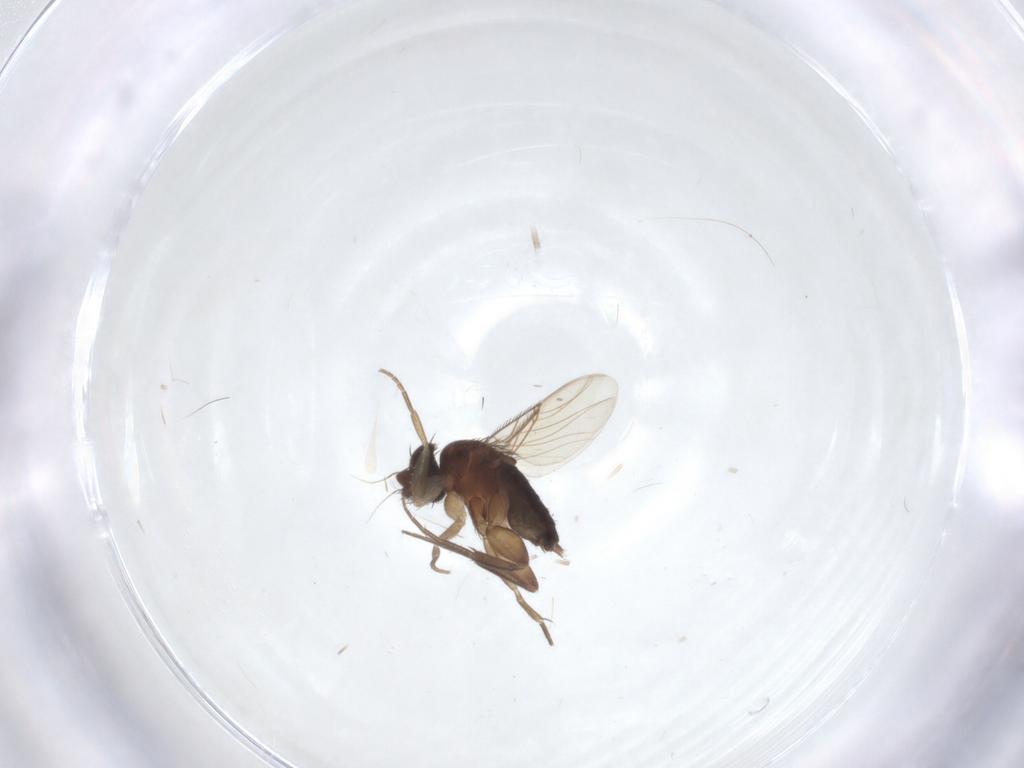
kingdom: Animalia
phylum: Arthropoda
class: Insecta
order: Diptera
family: Phoridae
